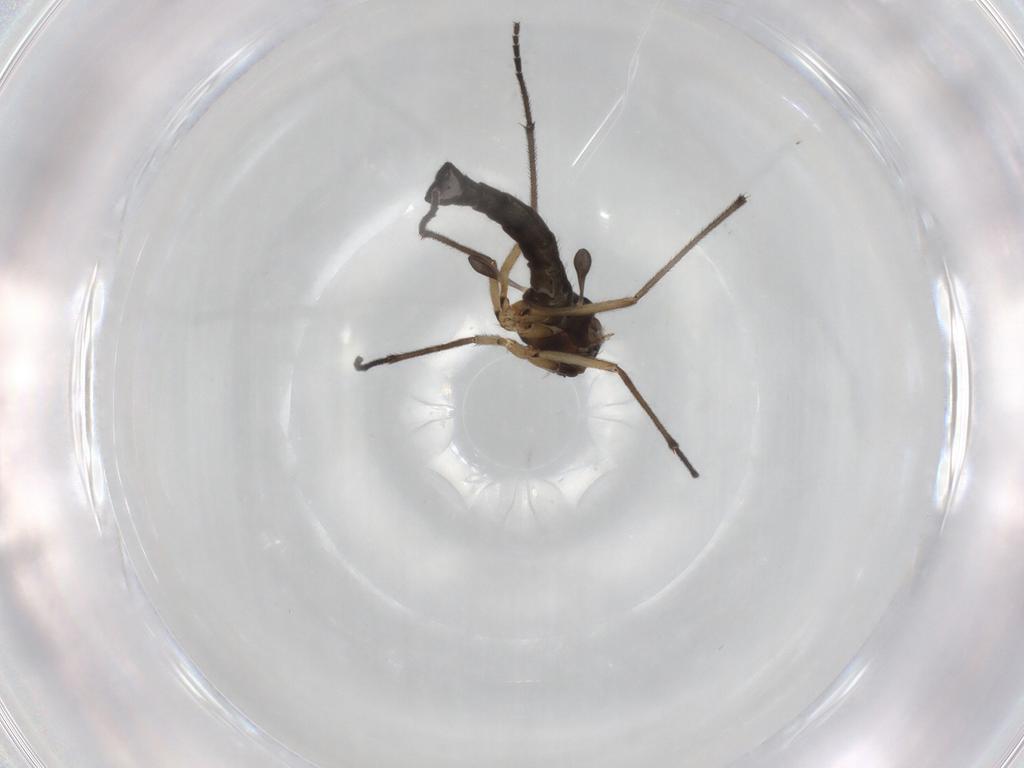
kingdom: Animalia
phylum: Arthropoda
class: Insecta
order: Diptera
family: Sciaridae
